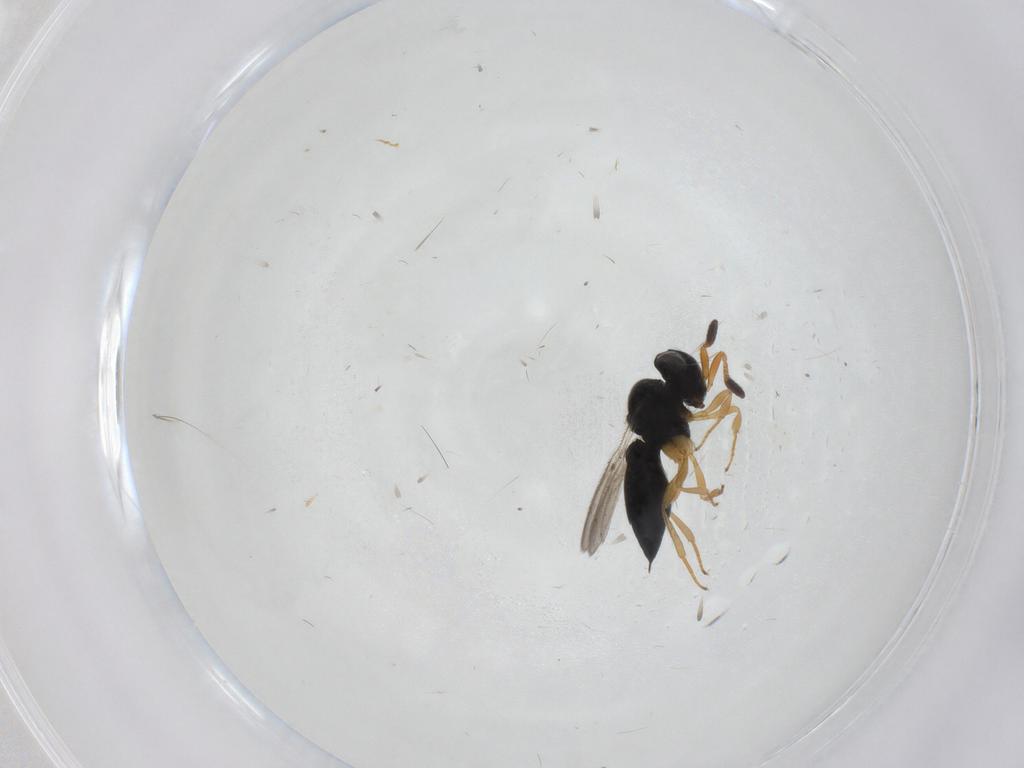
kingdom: Animalia
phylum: Arthropoda
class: Insecta
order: Hymenoptera
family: Scelionidae
